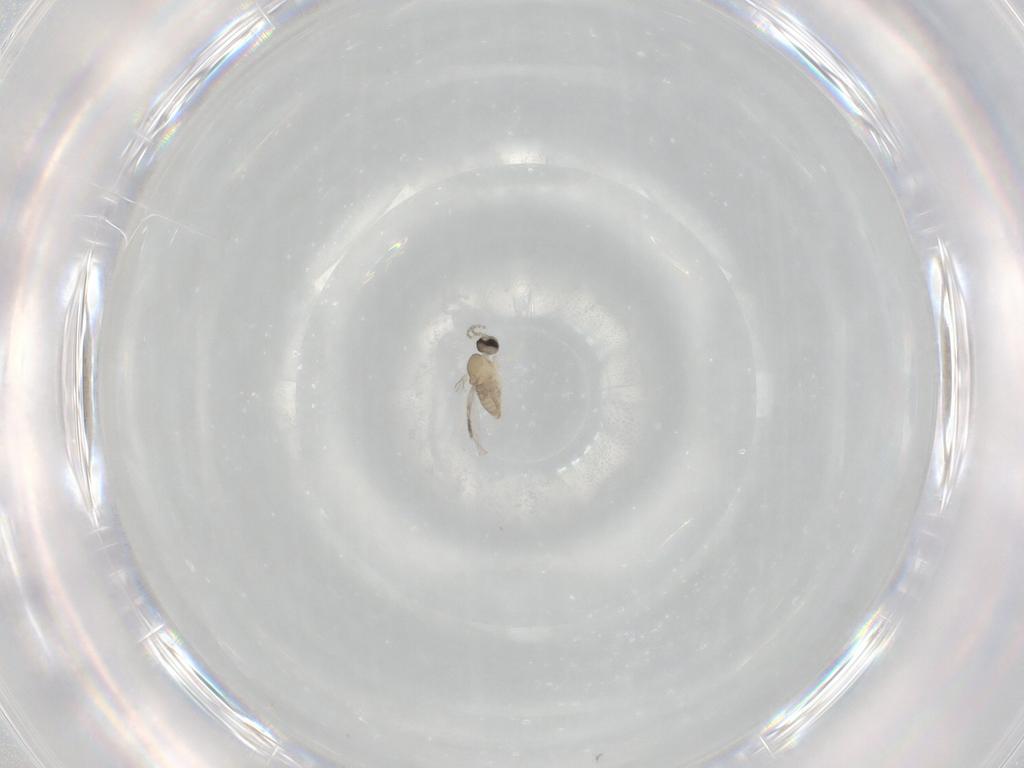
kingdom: Animalia
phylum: Arthropoda
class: Insecta
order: Diptera
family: Cecidomyiidae
